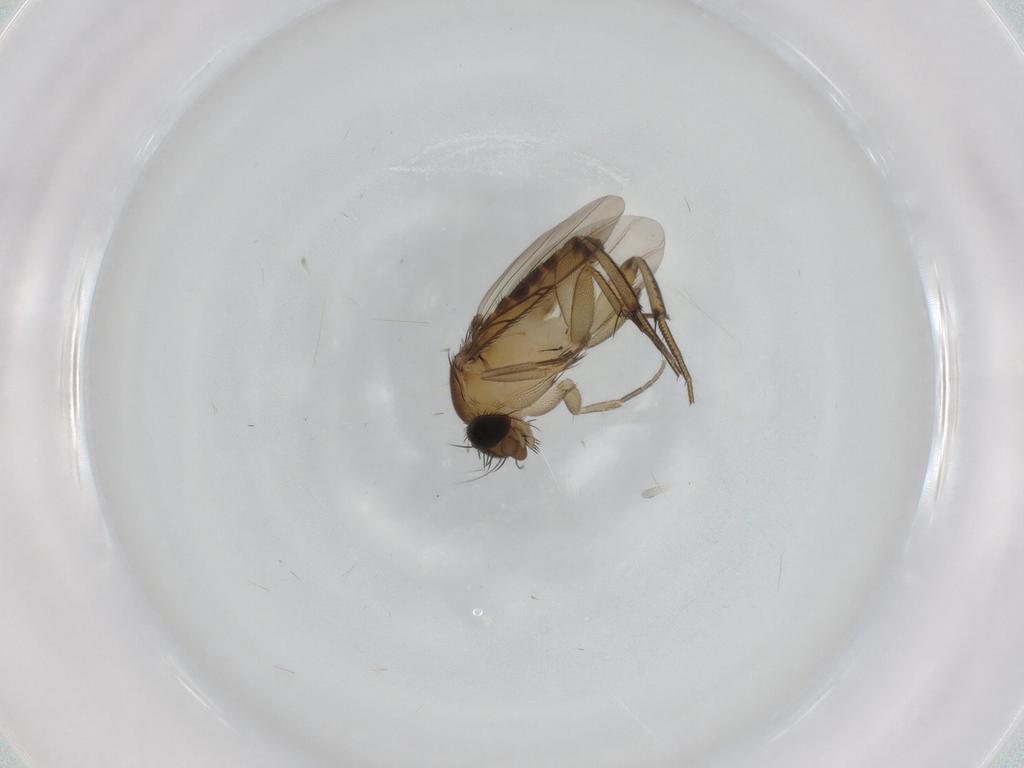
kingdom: Animalia
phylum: Arthropoda
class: Insecta
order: Diptera
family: Phoridae
